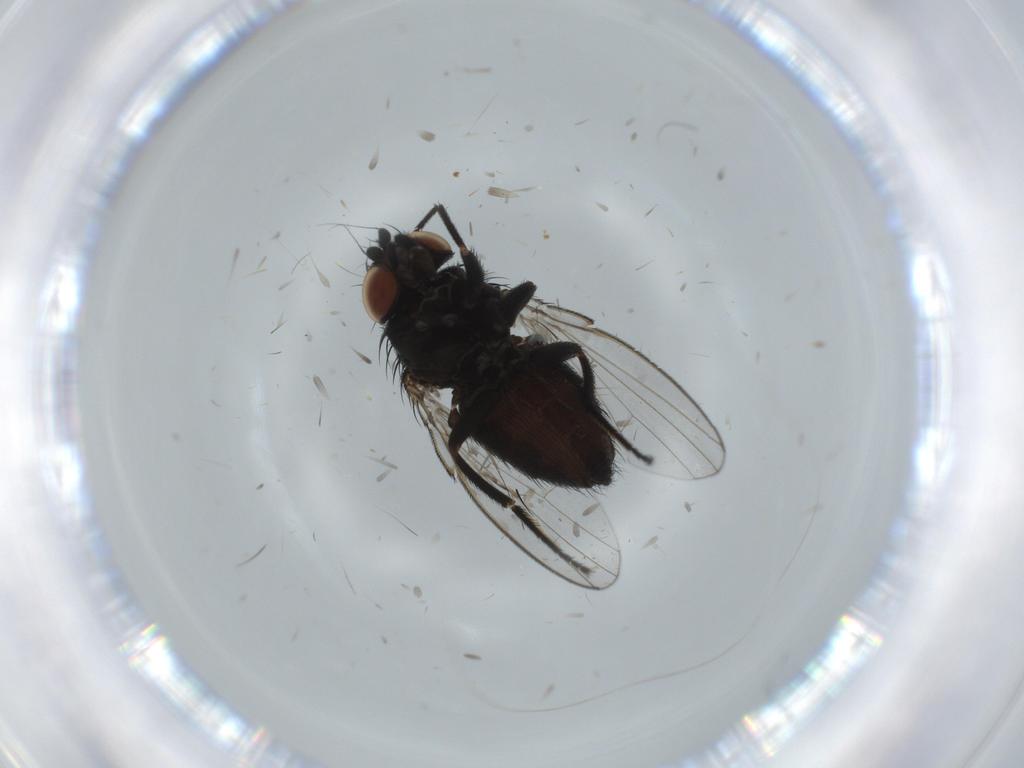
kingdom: Animalia
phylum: Arthropoda
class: Insecta
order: Diptera
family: Milichiidae
